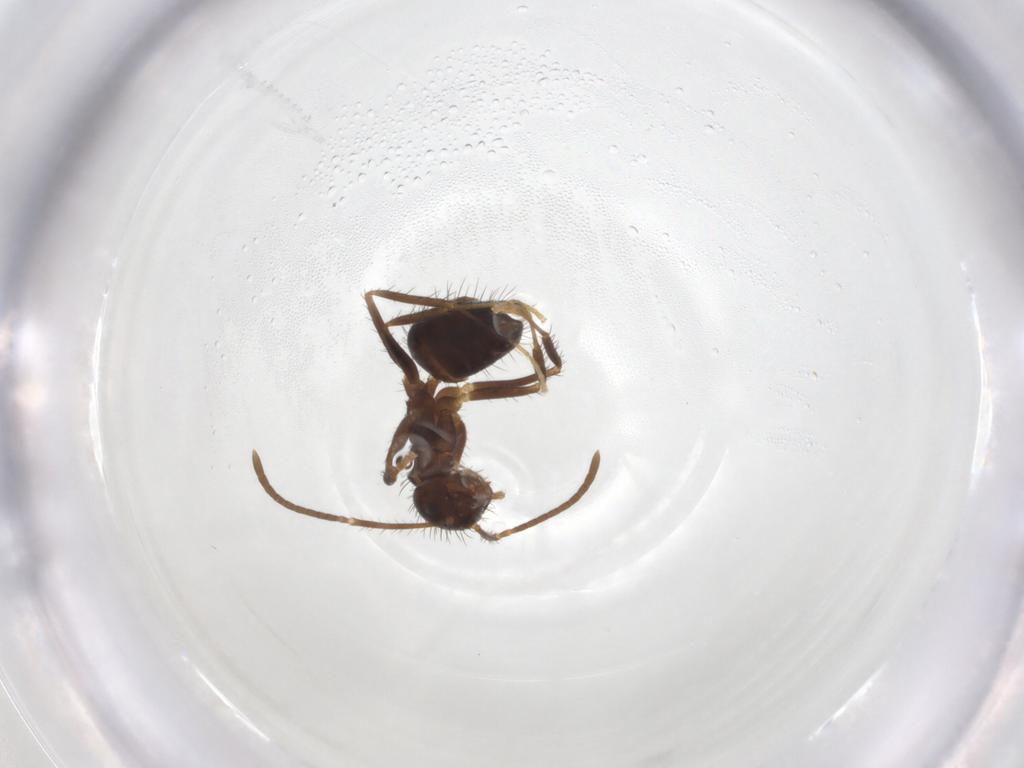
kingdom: Animalia
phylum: Arthropoda
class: Insecta
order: Hymenoptera
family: Formicidae
